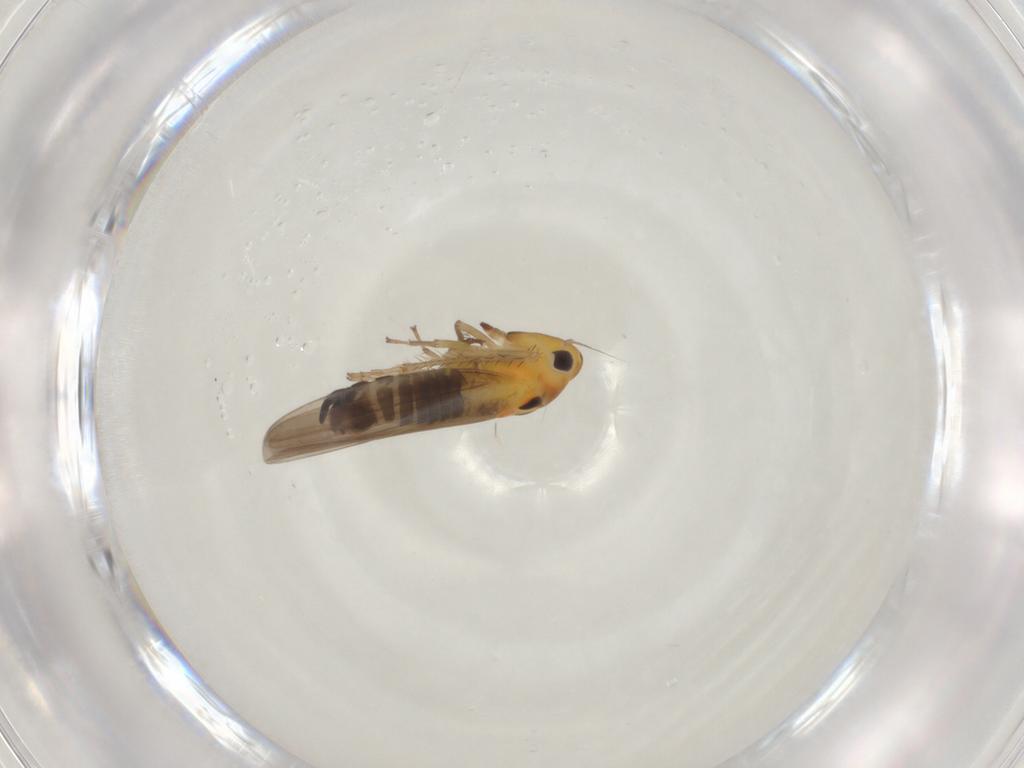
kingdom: Animalia
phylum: Arthropoda
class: Insecta
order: Hemiptera
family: Cicadellidae
